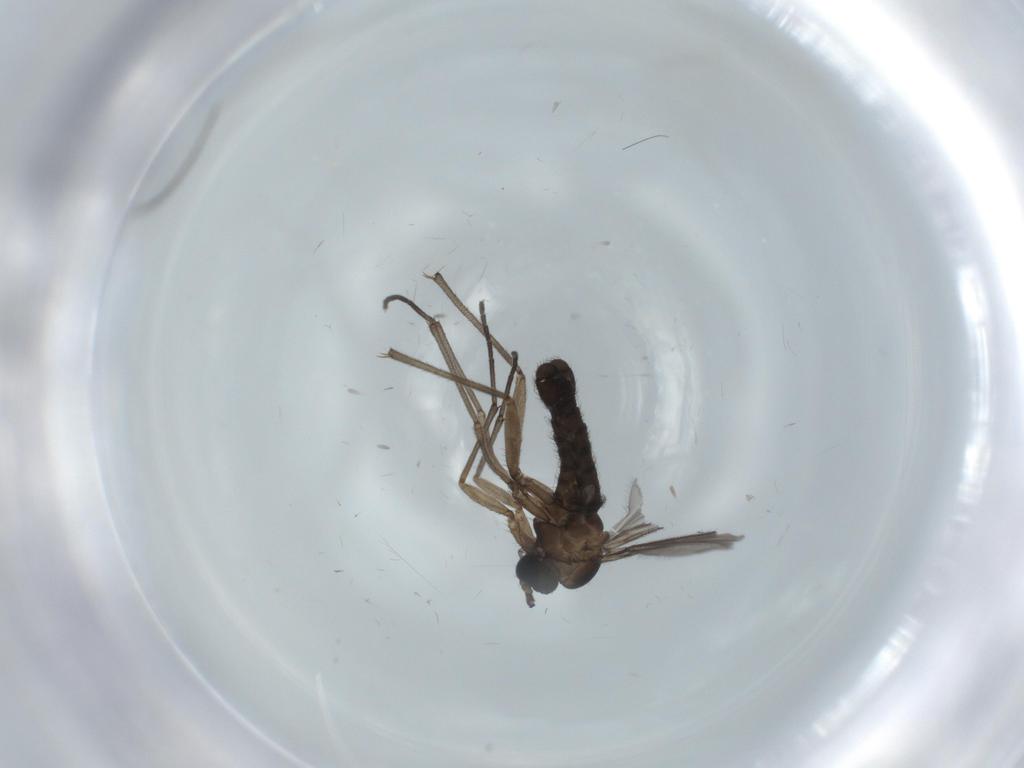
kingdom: Animalia
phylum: Arthropoda
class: Insecta
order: Diptera
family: Sciaridae
